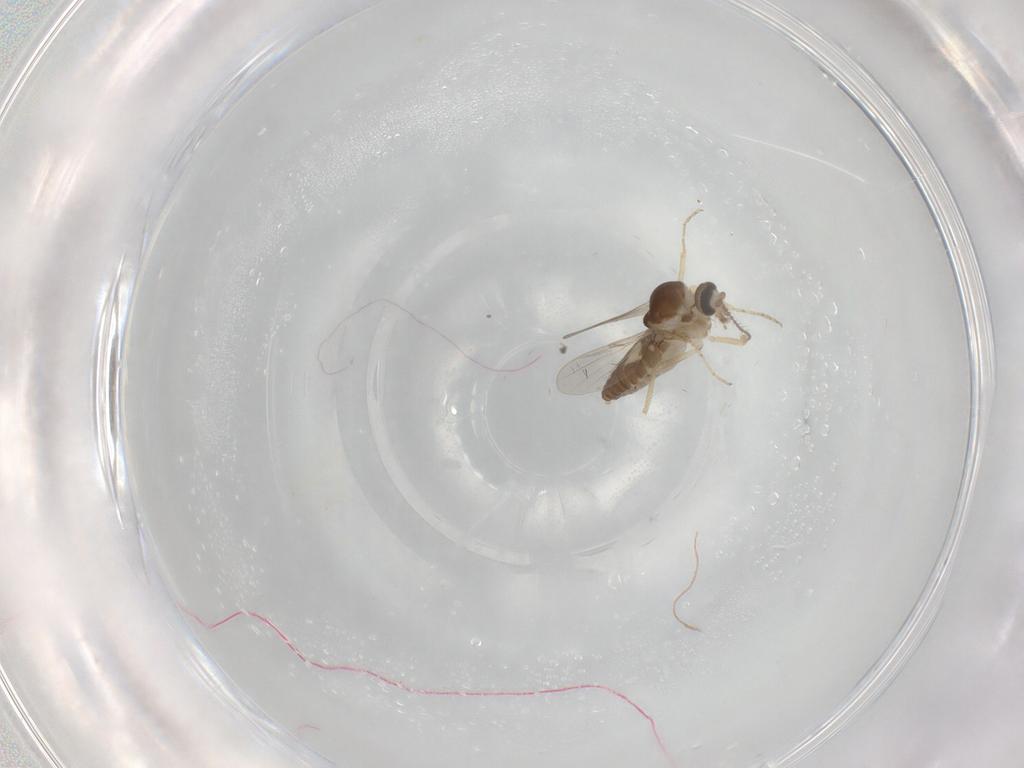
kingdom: Animalia
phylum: Arthropoda
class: Insecta
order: Diptera
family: Ceratopogonidae
